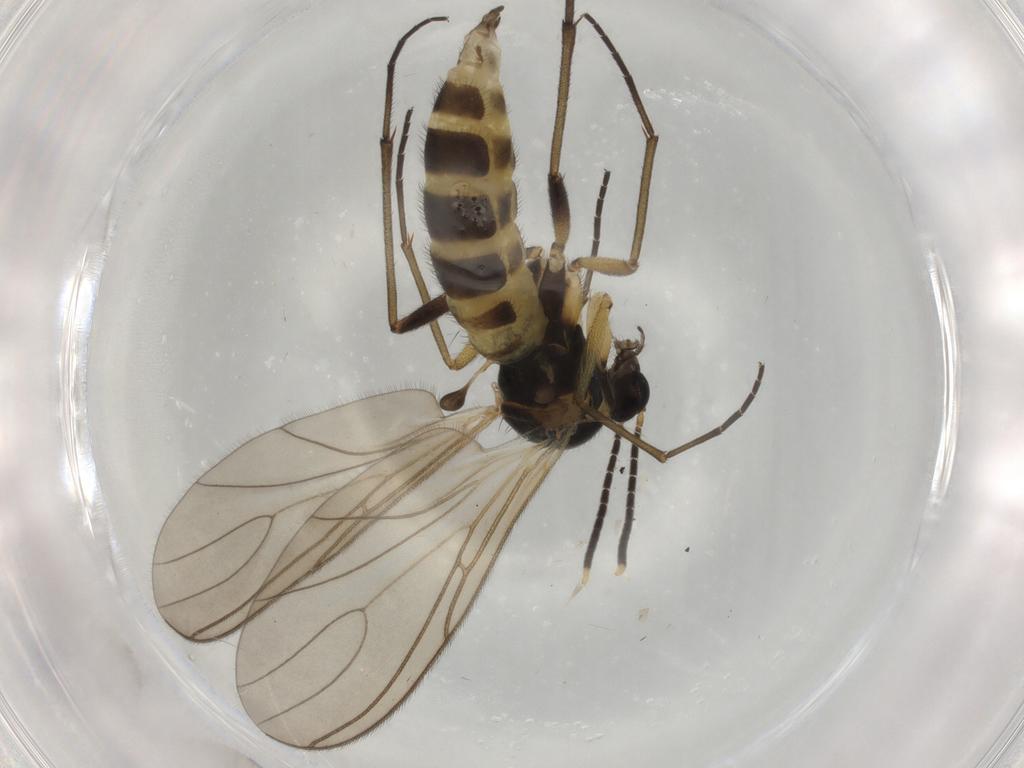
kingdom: Animalia
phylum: Arthropoda
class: Insecta
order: Diptera
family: Sciaridae
